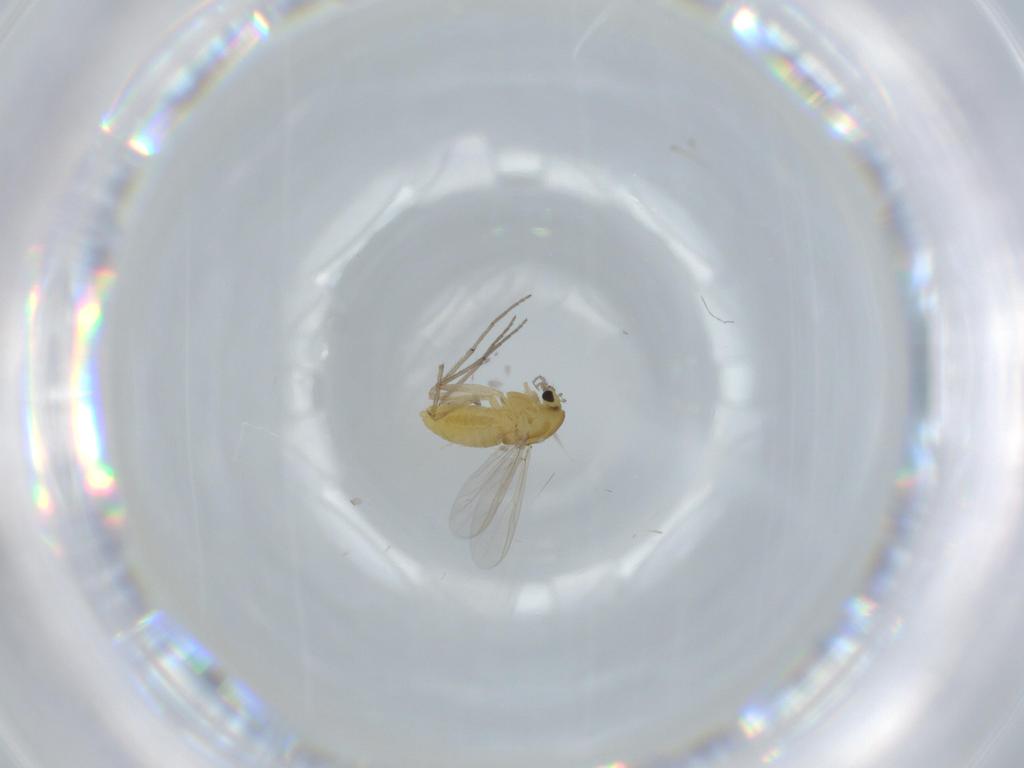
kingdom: Animalia
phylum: Arthropoda
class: Insecta
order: Diptera
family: Chironomidae
